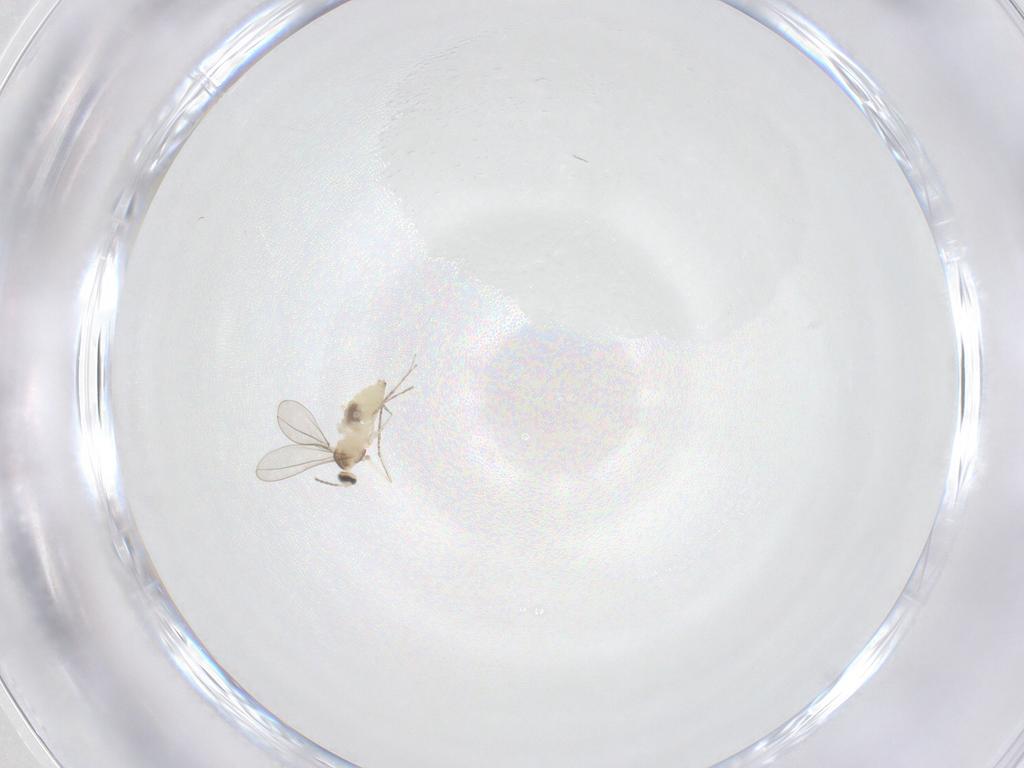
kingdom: Animalia
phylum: Arthropoda
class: Insecta
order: Diptera
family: Cecidomyiidae
